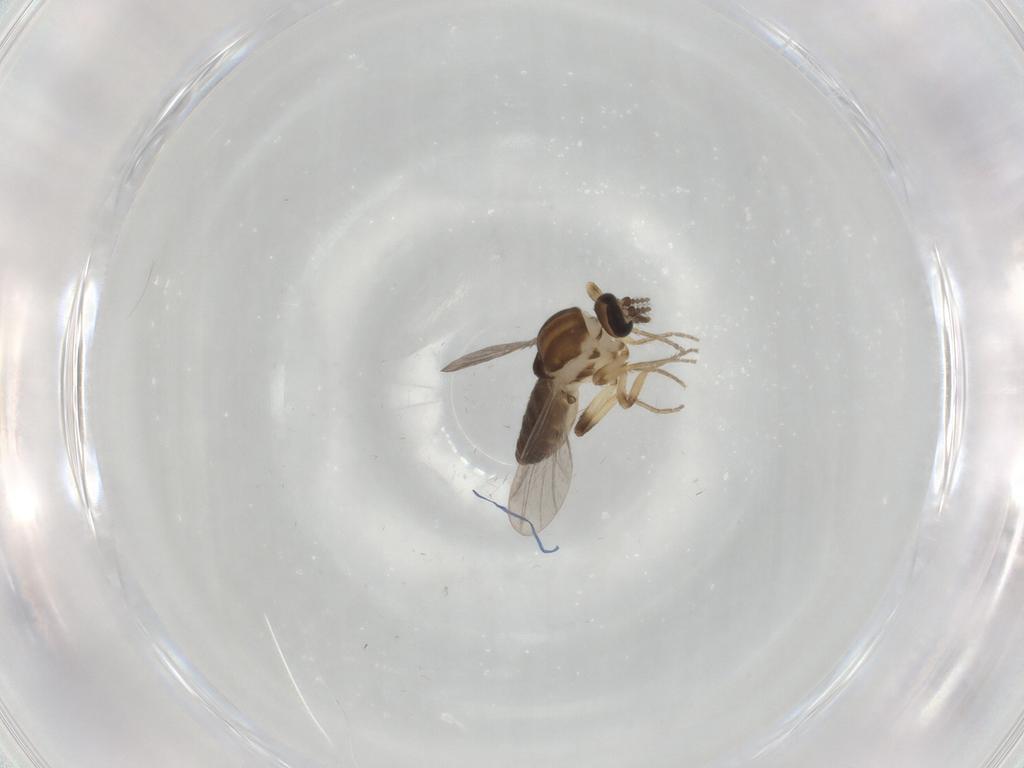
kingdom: Animalia
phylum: Arthropoda
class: Insecta
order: Diptera
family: Ceratopogonidae
